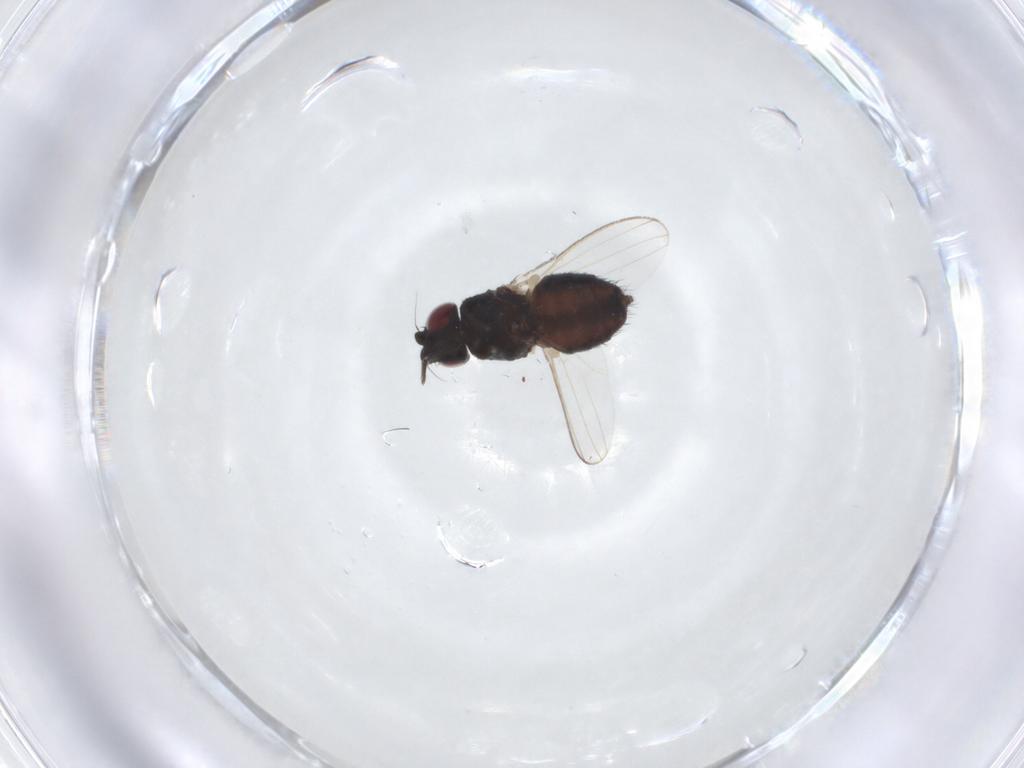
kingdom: Animalia
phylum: Arthropoda
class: Insecta
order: Diptera
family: Milichiidae
